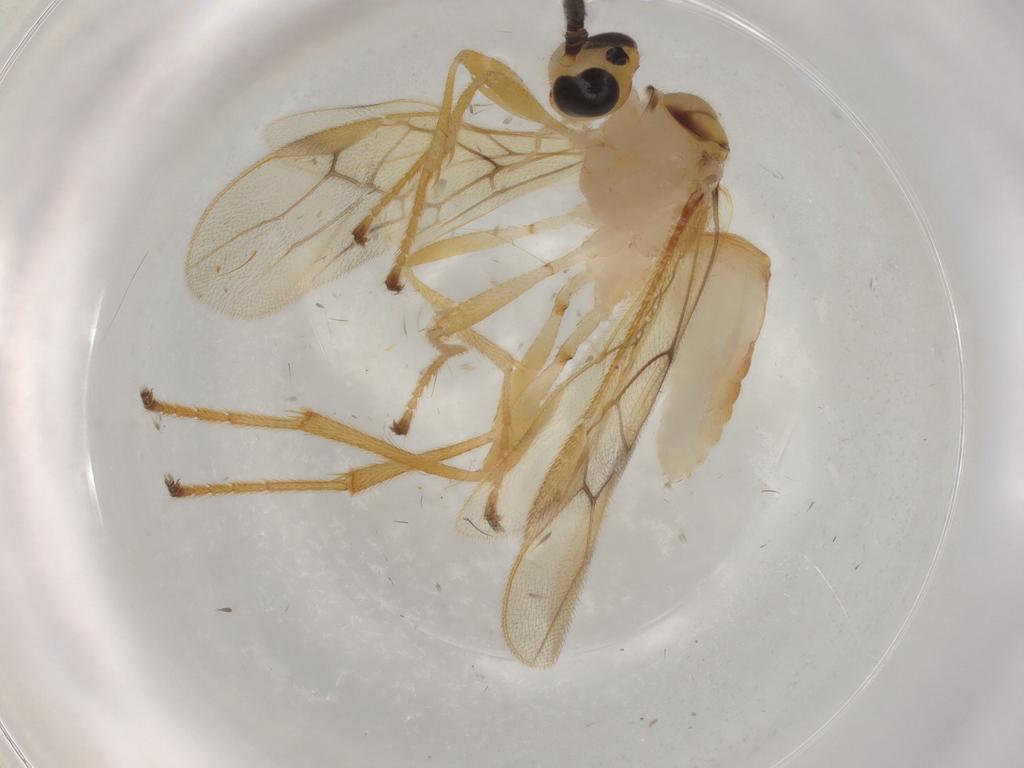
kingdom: Animalia
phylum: Arthropoda
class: Insecta
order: Hymenoptera
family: Braconidae
